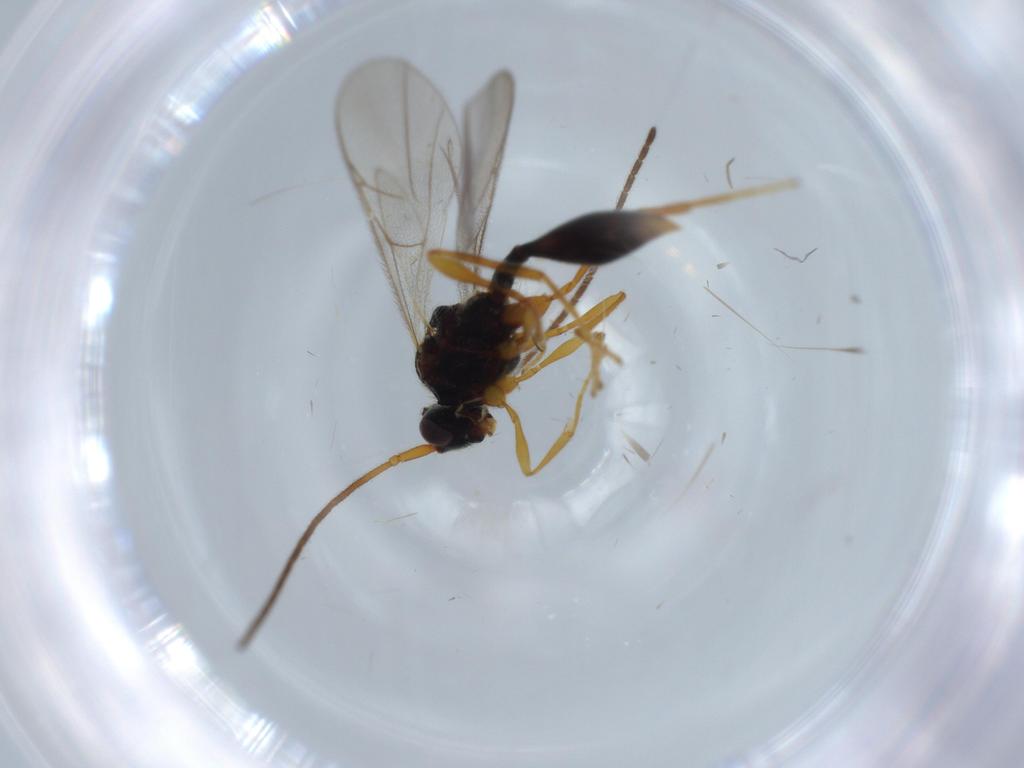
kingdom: Animalia
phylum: Arthropoda
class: Insecta
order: Hymenoptera
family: Diapriidae
